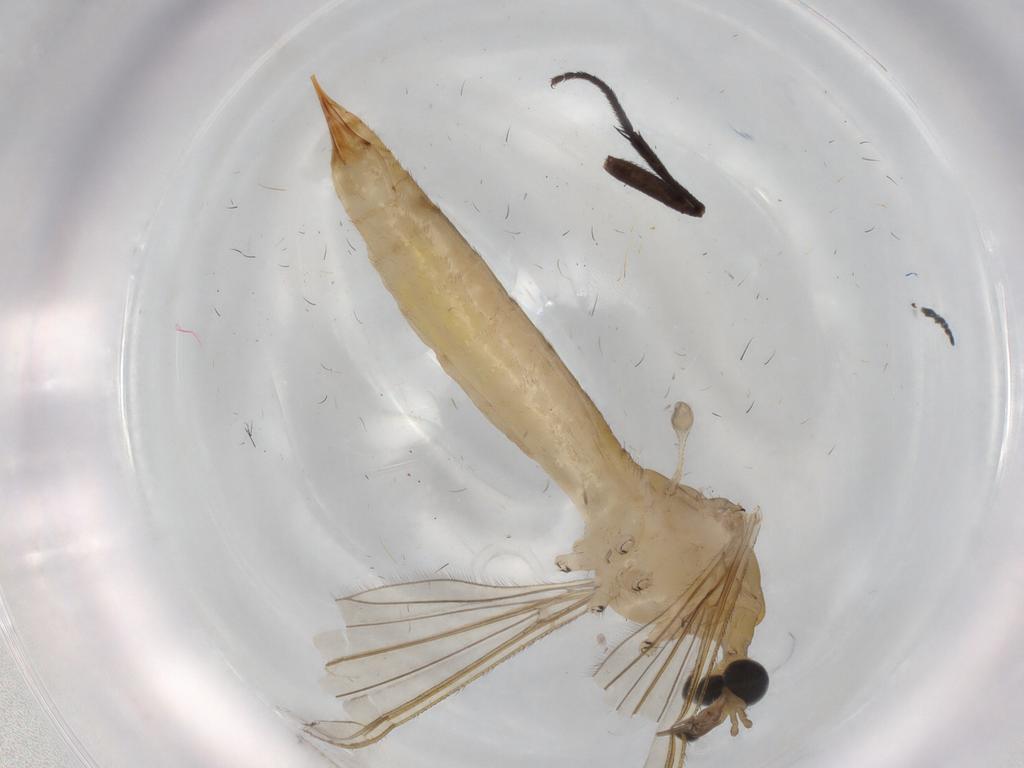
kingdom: Animalia
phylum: Arthropoda
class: Insecta
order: Diptera
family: Limoniidae
